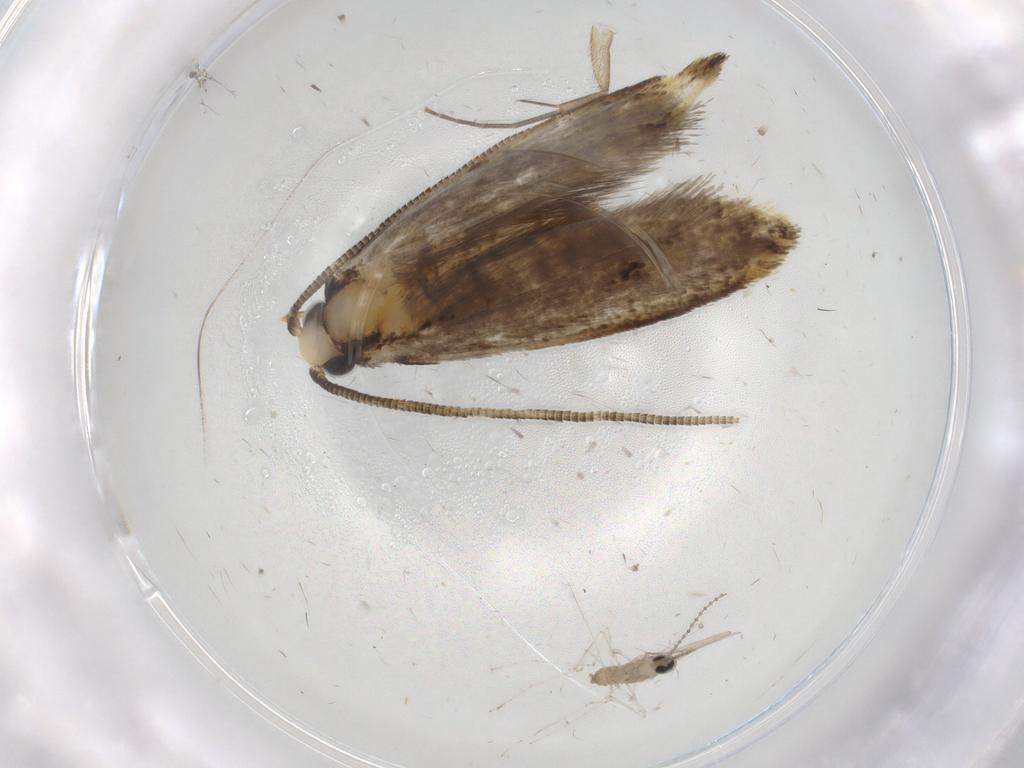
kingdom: Animalia
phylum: Arthropoda
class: Insecta
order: Lepidoptera
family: Tineidae
